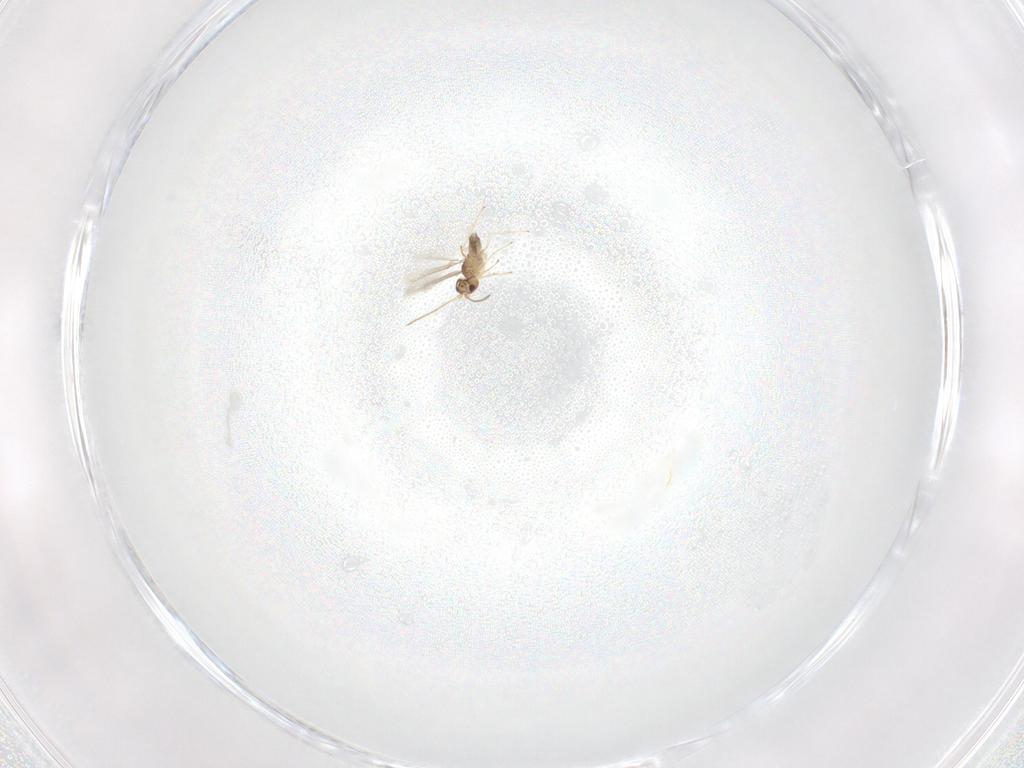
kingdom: Animalia
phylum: Arthropoda
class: Insecta
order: Hymenoptera
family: Mymaridae
